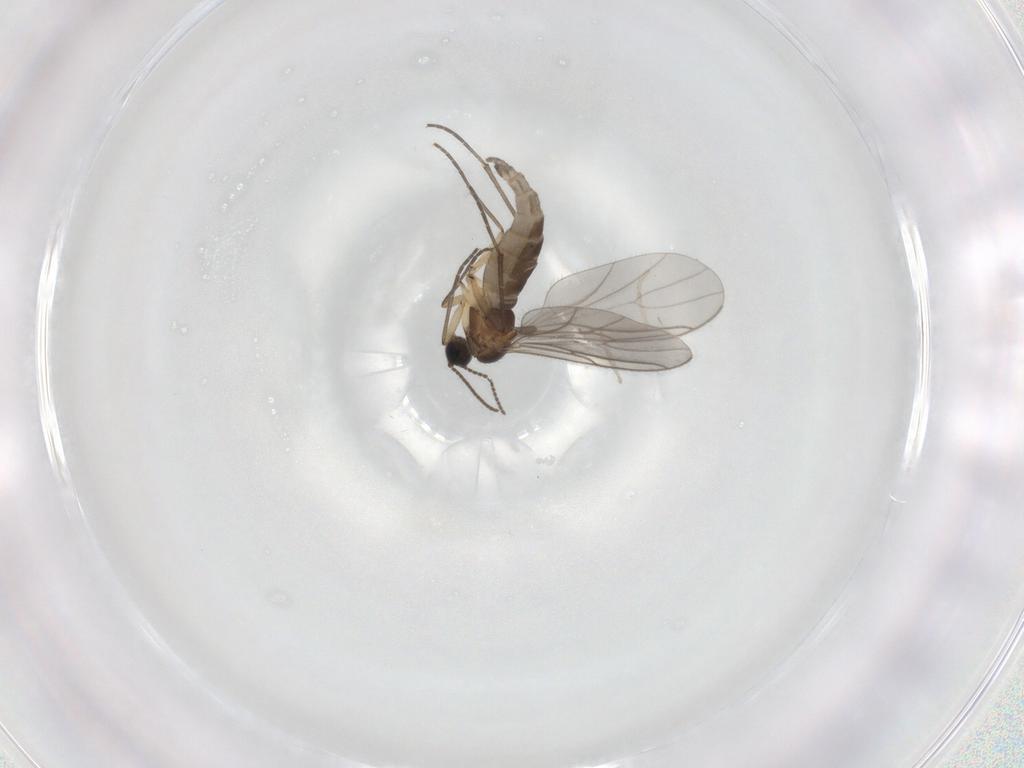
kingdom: Animalia
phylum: Arthropoda
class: Insecta
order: Diptera
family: Sciaridae
